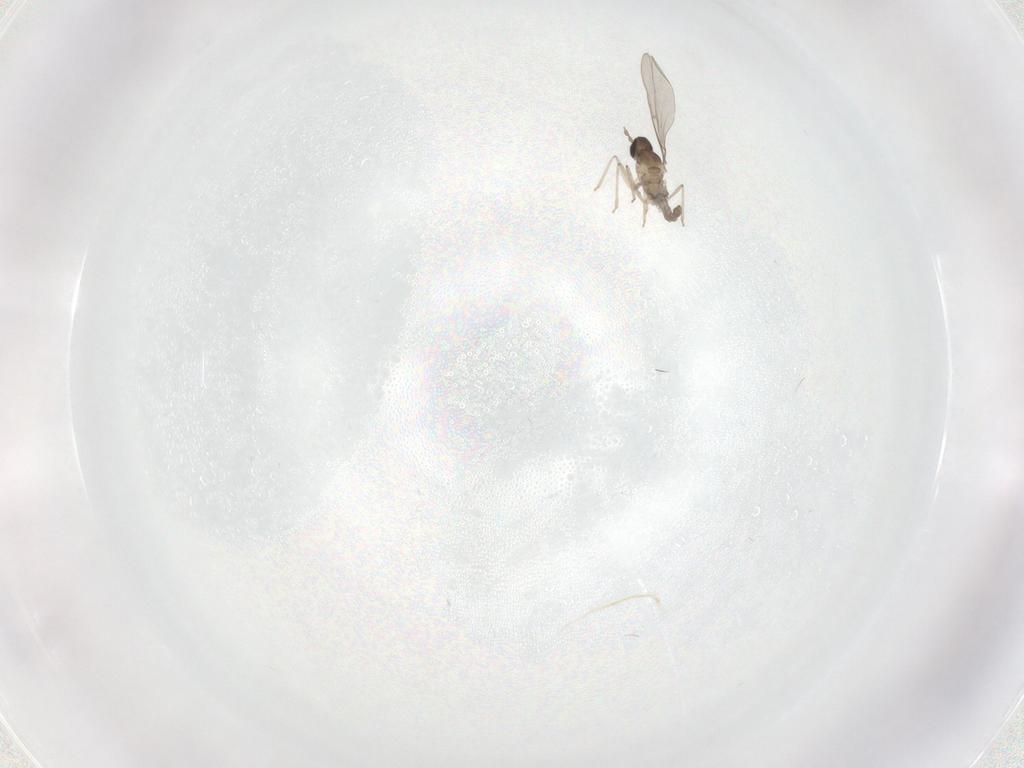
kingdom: Animalia
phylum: Arthropoda
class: Insecta
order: Diptera
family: Cecidomyiidae
